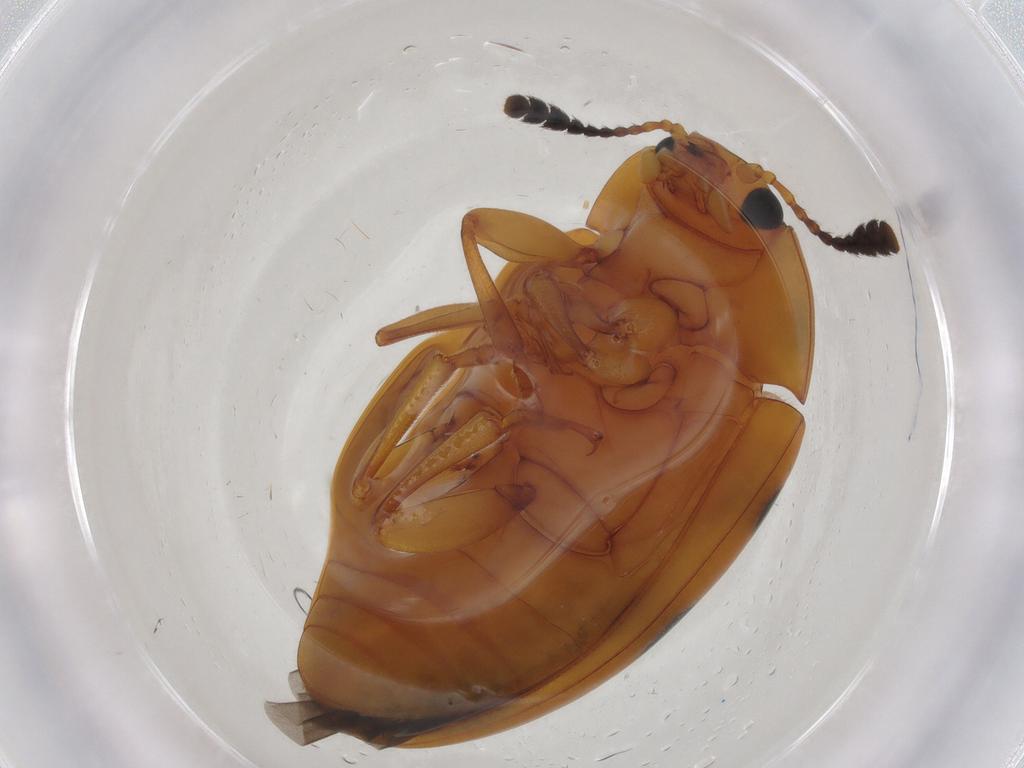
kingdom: Animalia
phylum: Arthropoda
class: Insecta
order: Coleoptera
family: Erotylidae
